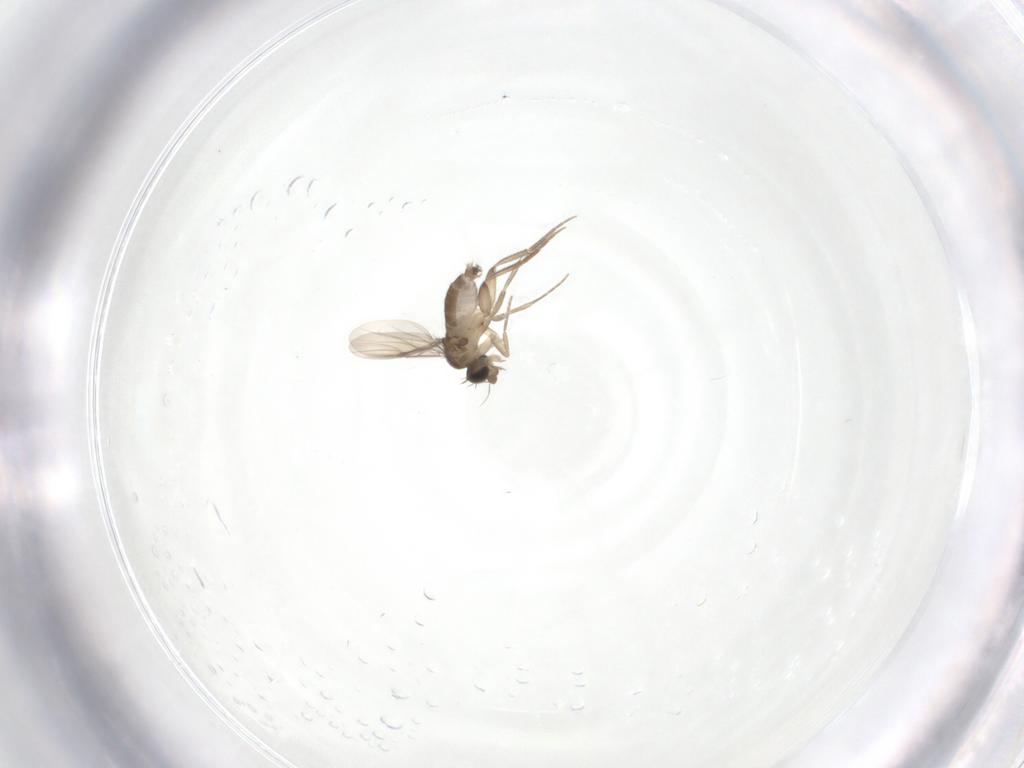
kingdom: Animalia
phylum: Arthropoda
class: Insecta
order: Diptera
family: Phoridae
